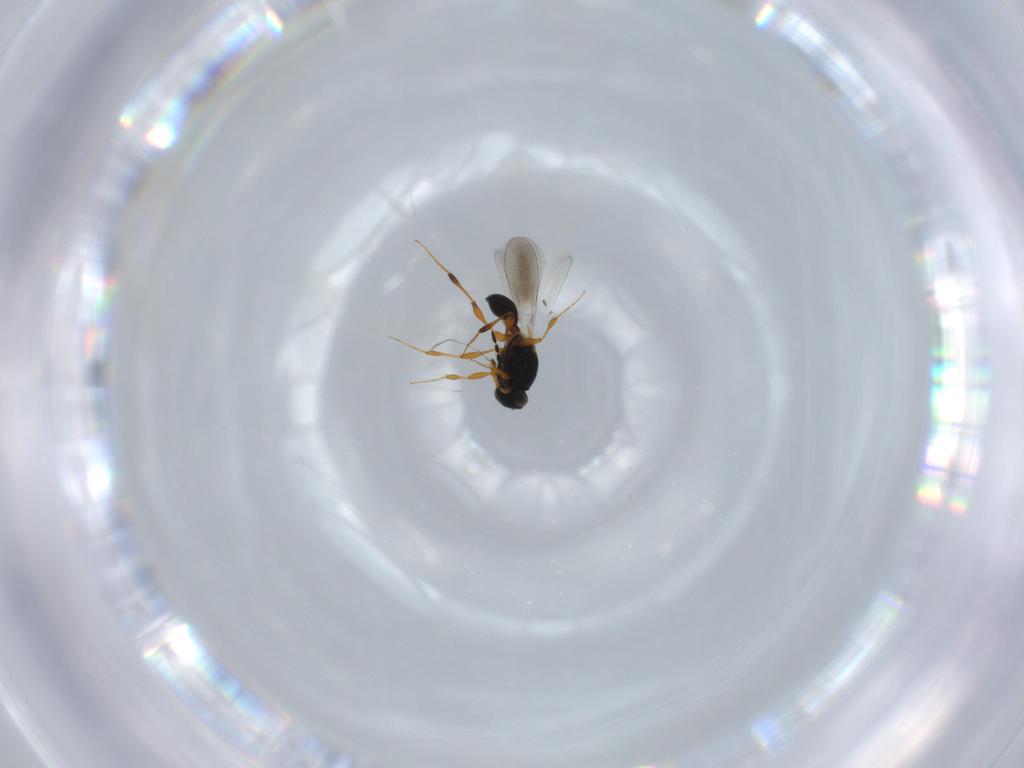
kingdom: Animalia
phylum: Arthropoda
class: Insecta
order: Hymenoptera
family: Platygastridae
